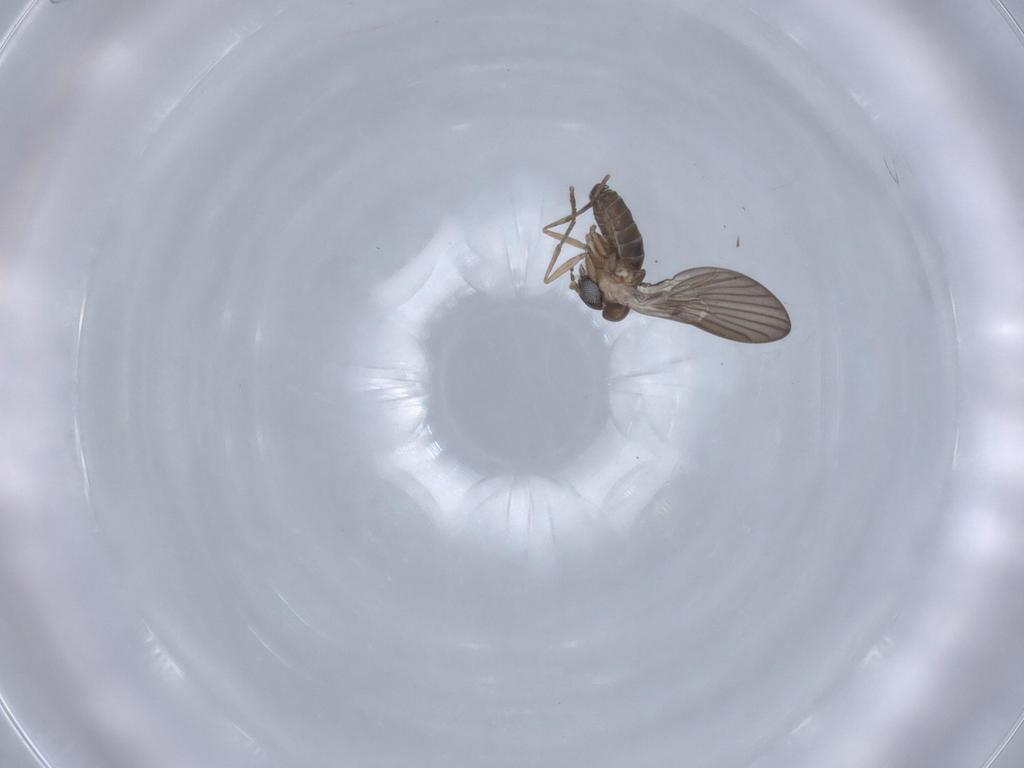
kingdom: Animalia
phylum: Arthropoda
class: Insecta
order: Diptera
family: Psychodidae
